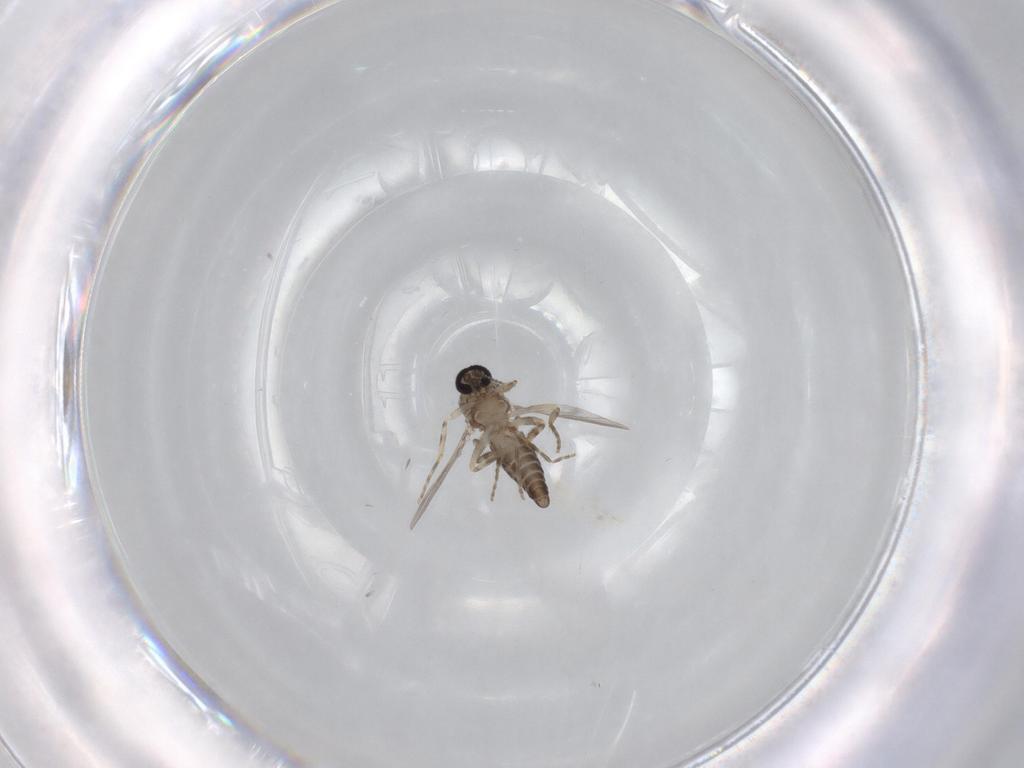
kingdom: Animalia
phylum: Arthropoda
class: Insecta
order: Diptera
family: Ceratopogonidae
